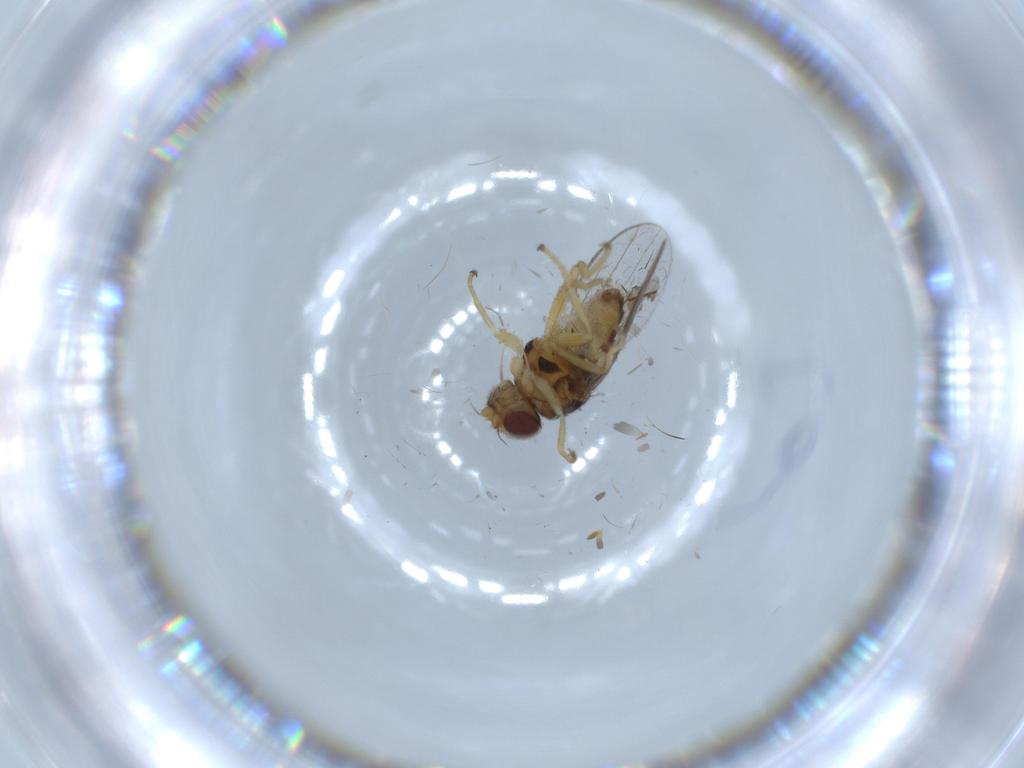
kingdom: Animalia
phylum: Arthropoda
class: Insecta
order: Diptera
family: Chloropidae
